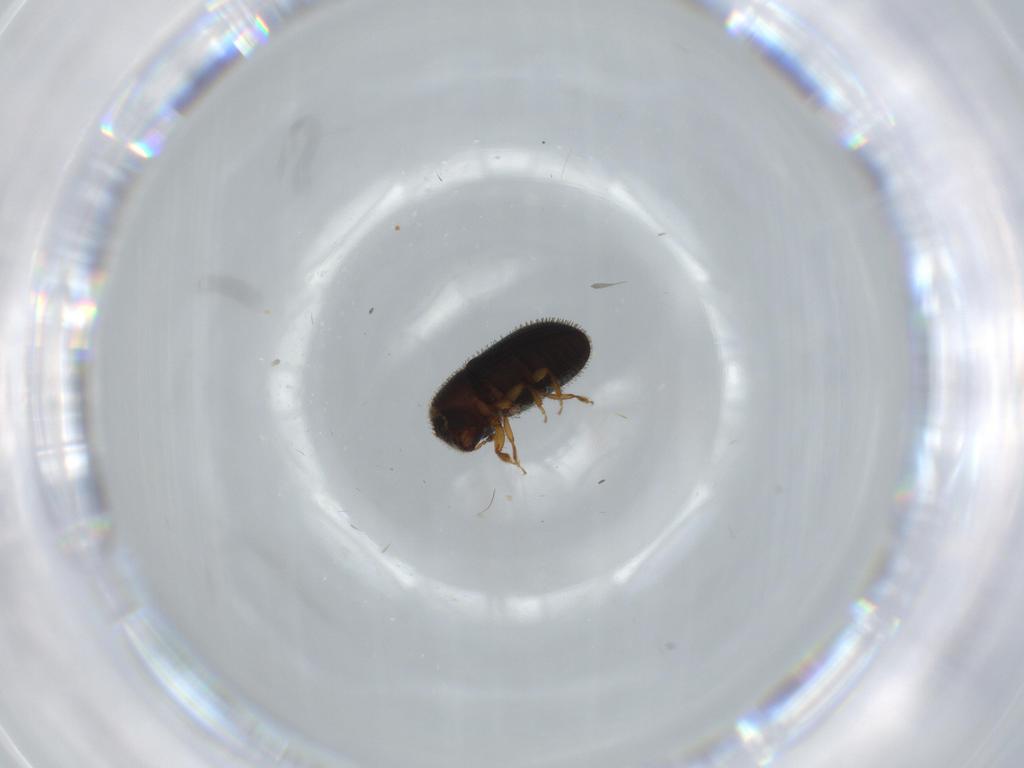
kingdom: Animalia
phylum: Arthropoda
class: Insecta
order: Coleoptera
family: Curculionidae
